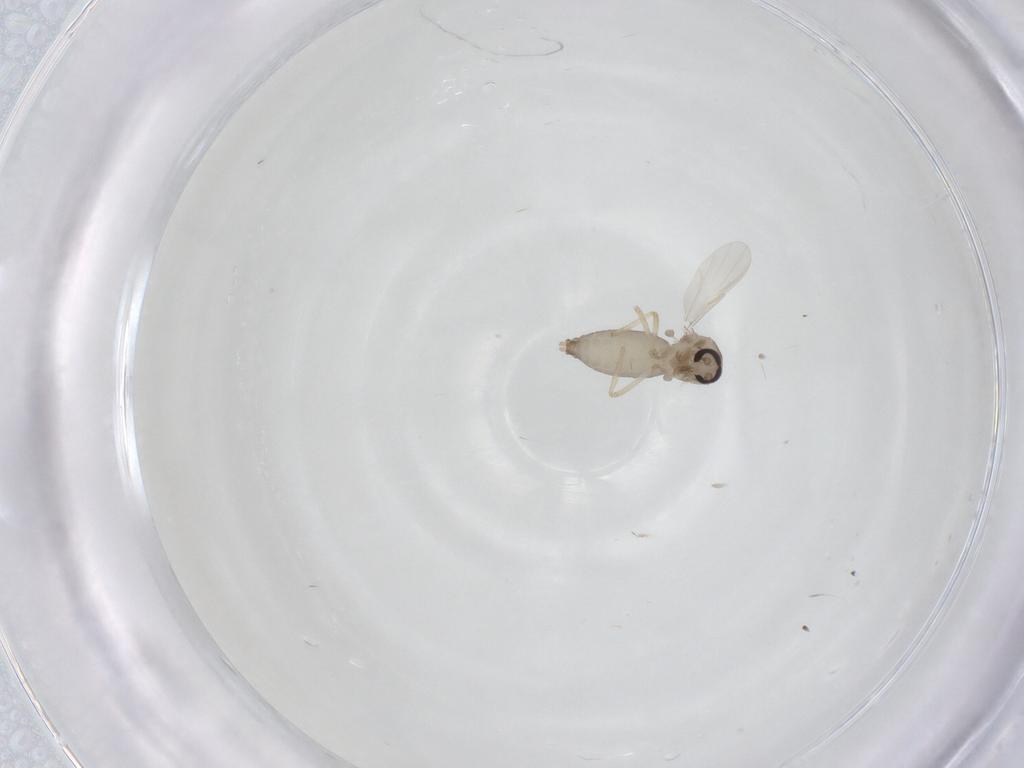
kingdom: Animalia
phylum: Arthropoda
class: Insecta
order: Diptera
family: Ceratopogonidae
